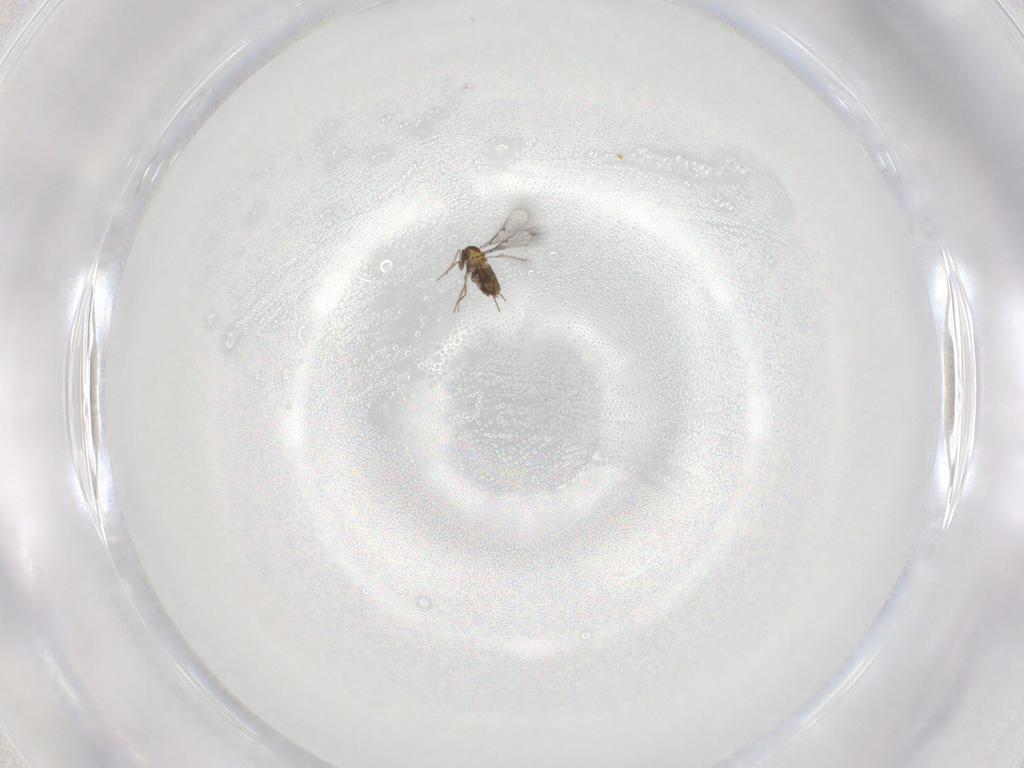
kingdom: Animalia
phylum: Arthropoda
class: Insecta
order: Hymenoptera
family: Trichogrammatidae
